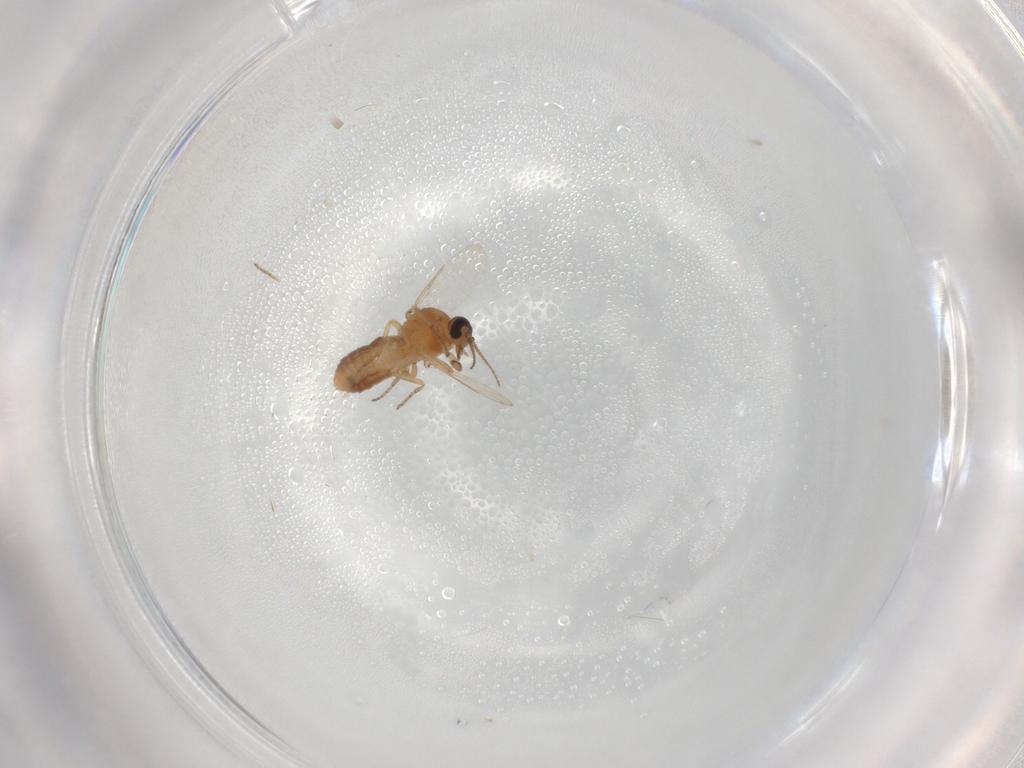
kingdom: Animalia
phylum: Arthropoda
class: Insecta
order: Diptera
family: Ceratopogonidae
